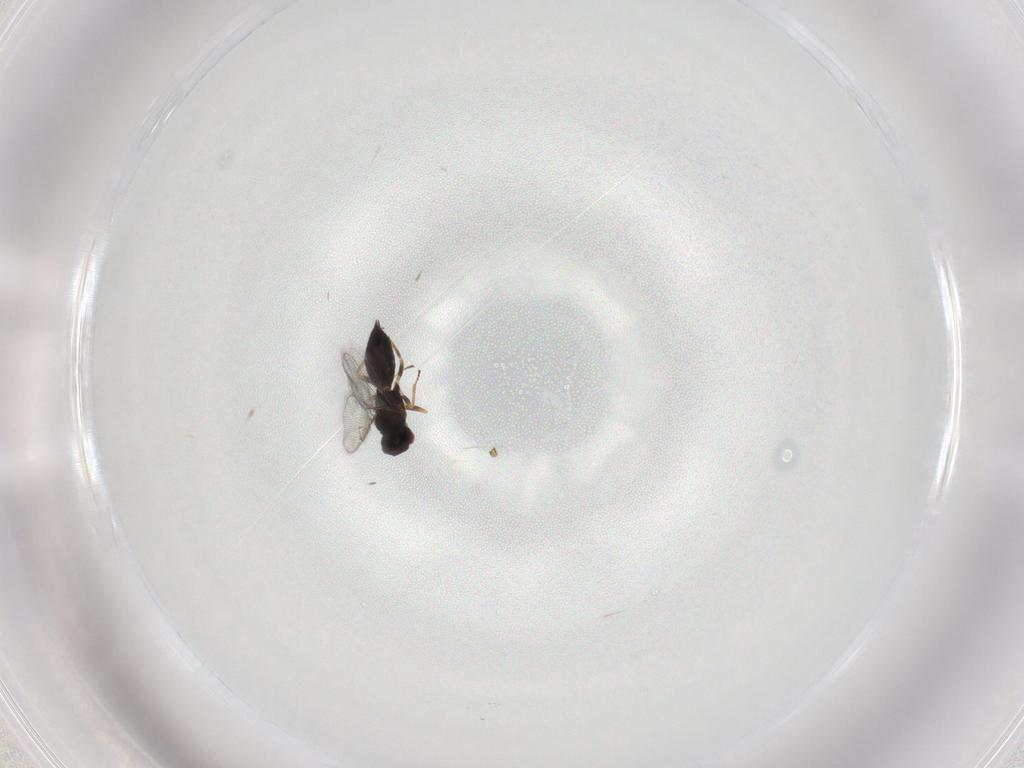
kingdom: Animalia
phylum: Arthropoda
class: Insecta
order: Hymenoptera
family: Eulophidae
